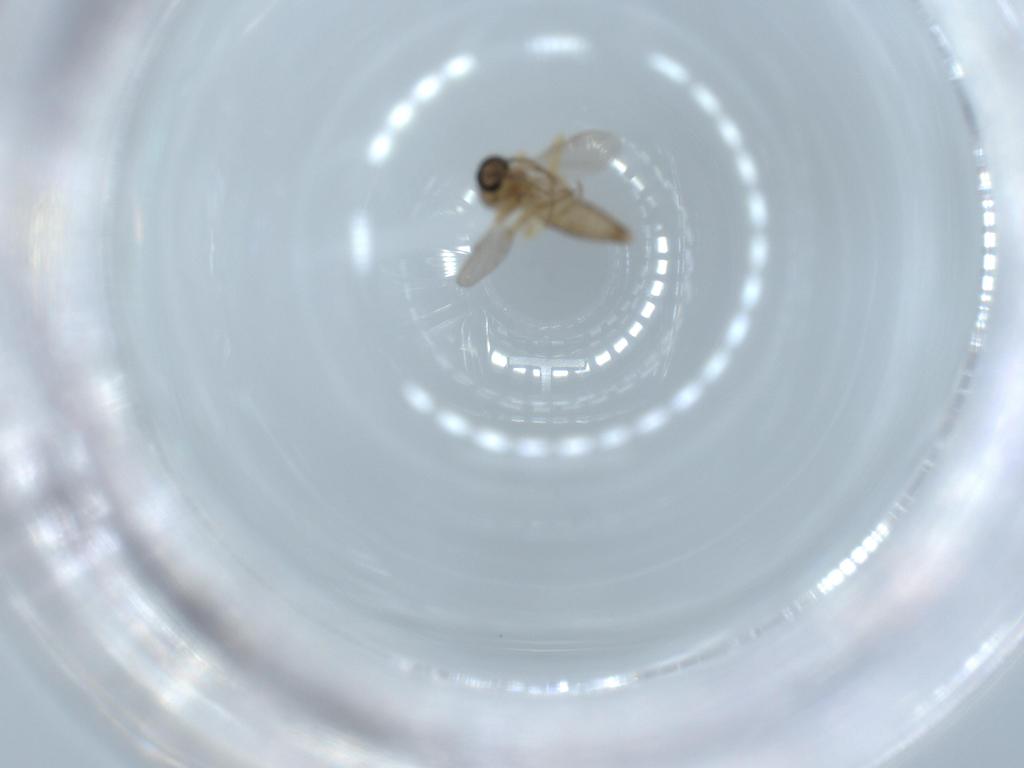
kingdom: Animalia
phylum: Arthropoda
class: Insecta
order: Diptera
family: Ceratopogonidae
